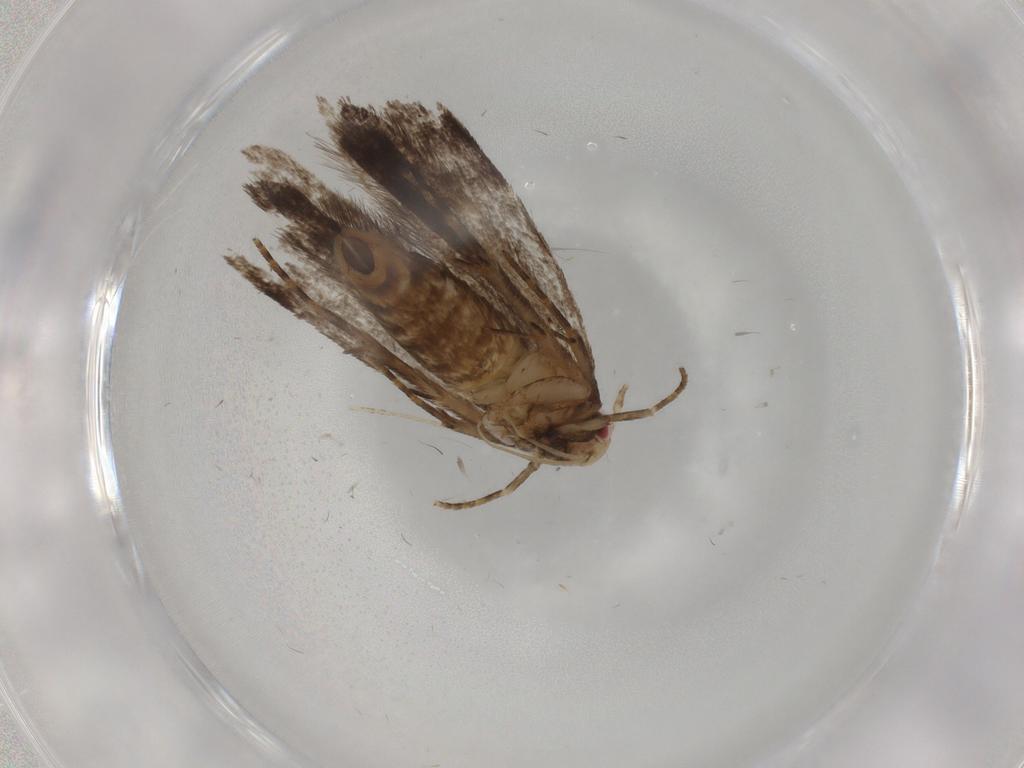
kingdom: Animalia
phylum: Arthropoda
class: Insecta
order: Lepidoptera
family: Gelechiidae
